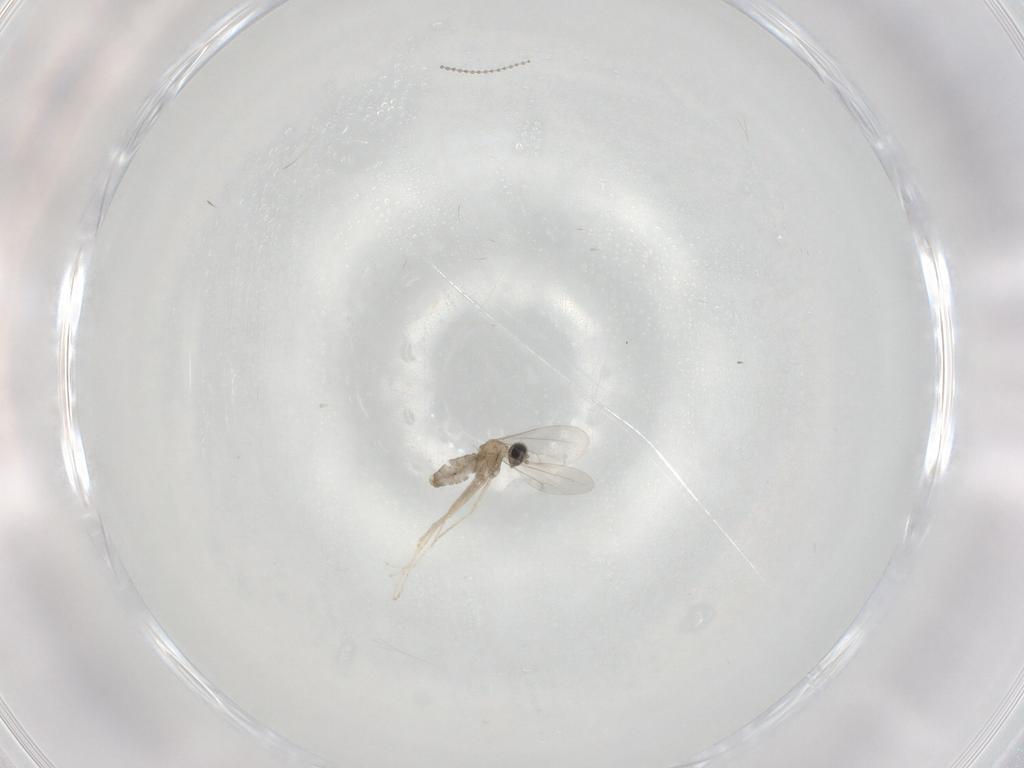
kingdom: Animalia
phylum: Arthropoda
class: Insecta
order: Diptera
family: Cecidomyiidae
